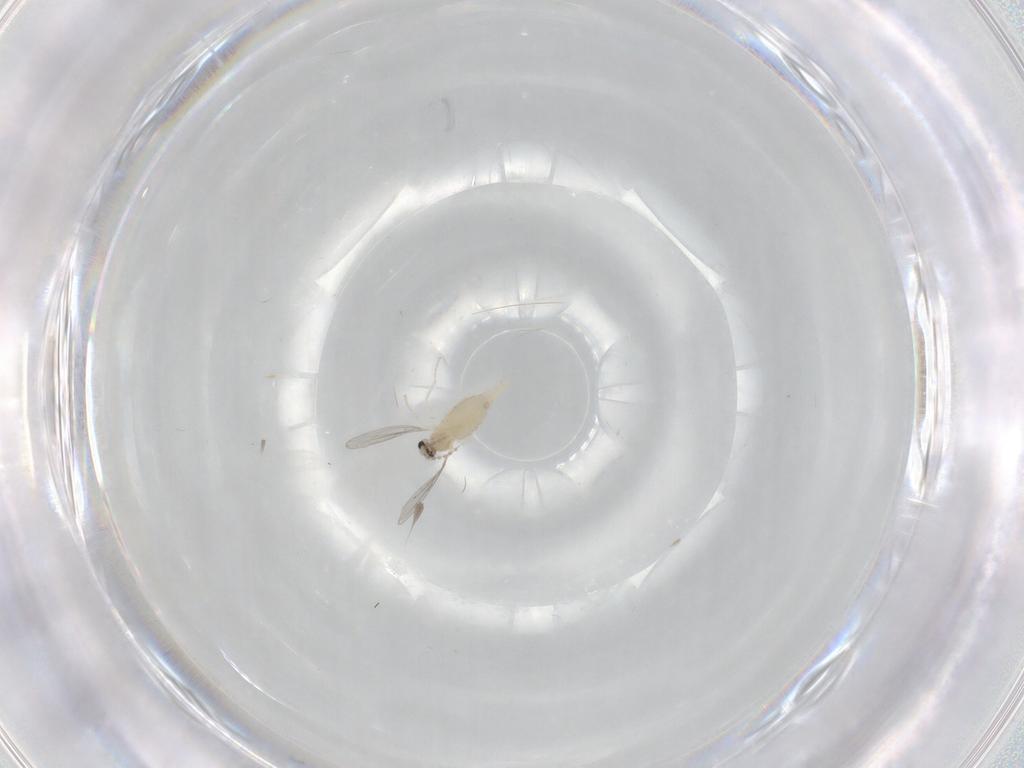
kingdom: Animalia
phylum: Arthropoda
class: Insecta
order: Diptera
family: Cecidomyiidae
